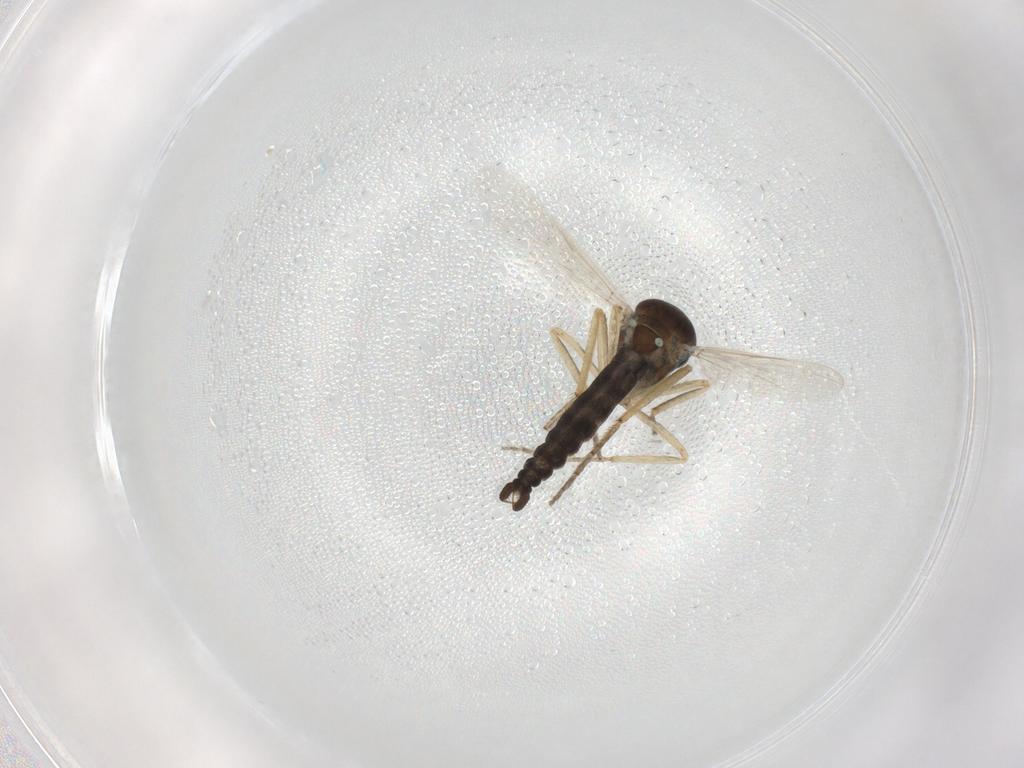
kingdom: Animalia
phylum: Arthropoda
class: Insecta
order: Diptera
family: Ceratopogonidae
